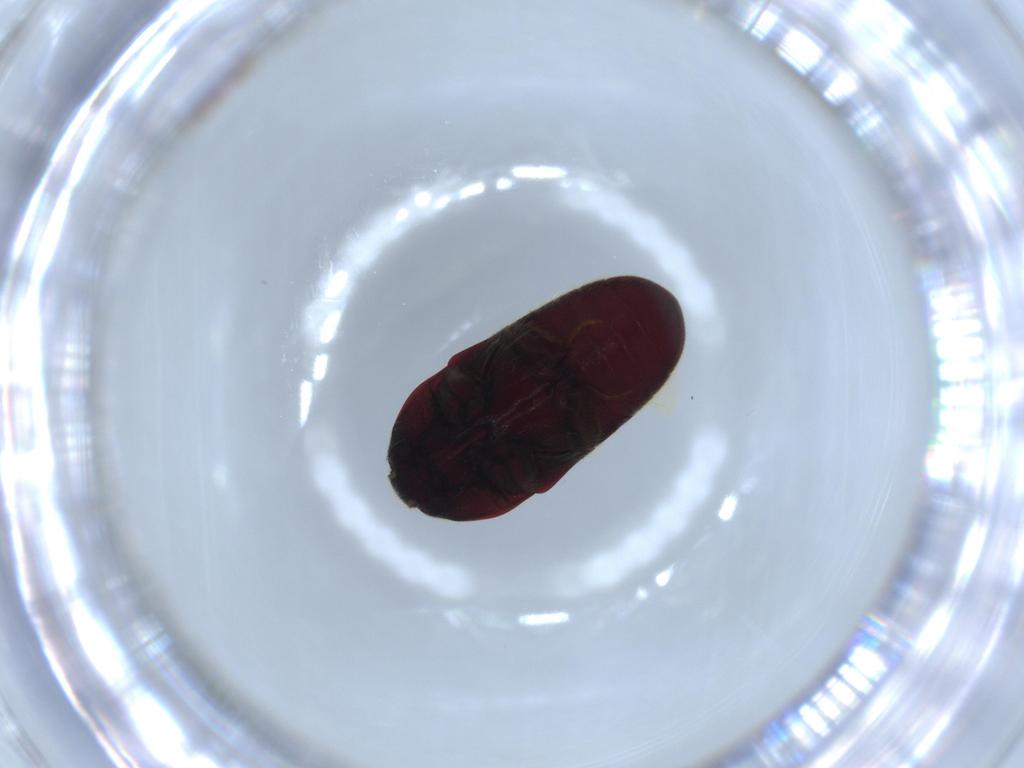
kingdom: Animalia
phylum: Arthropoda
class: Insecta
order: Coleoptera
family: Throscidae
